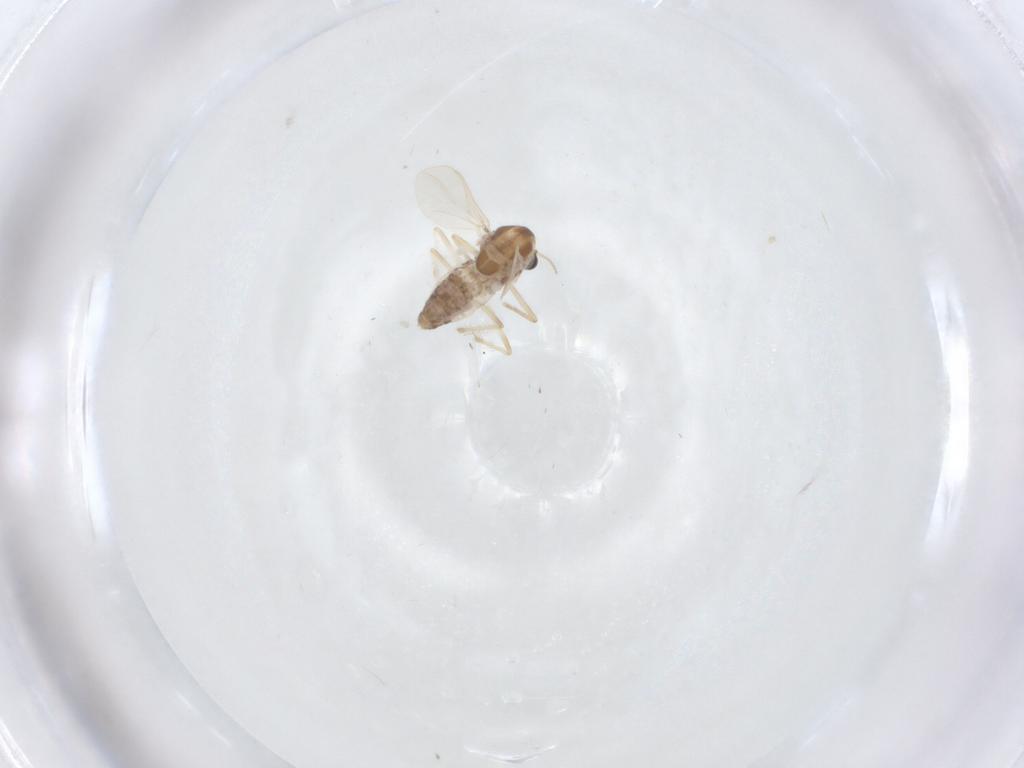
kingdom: Animalia
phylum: Arthropoda
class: Insecta
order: Diptera
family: Chironomidae
